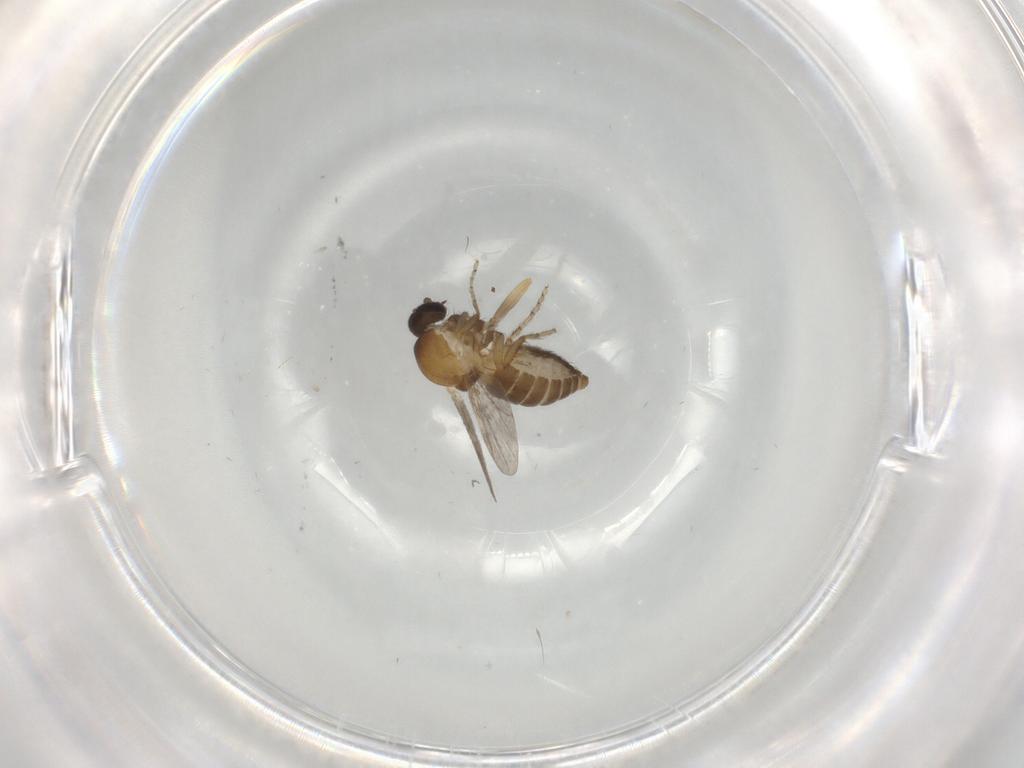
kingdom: Animalia
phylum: Arthropoda
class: Insecta
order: Diptera
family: Ceratopogonidae
